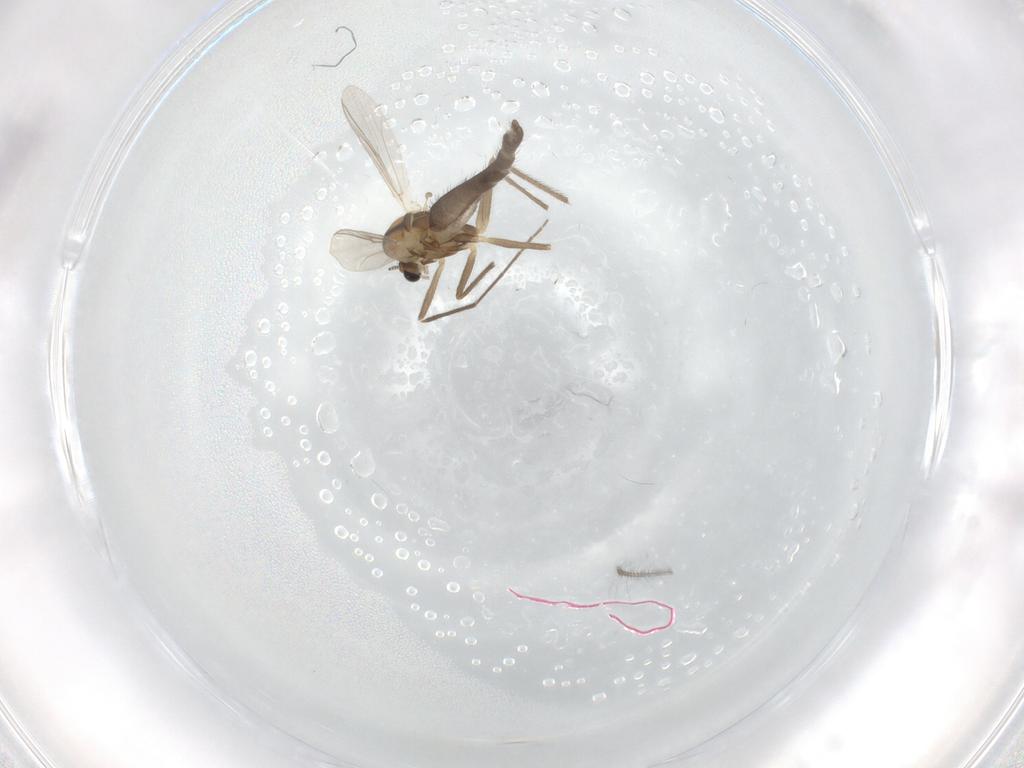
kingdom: Animalia
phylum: Arthropoda
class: Insecta
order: Diptera
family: Chironomidae
